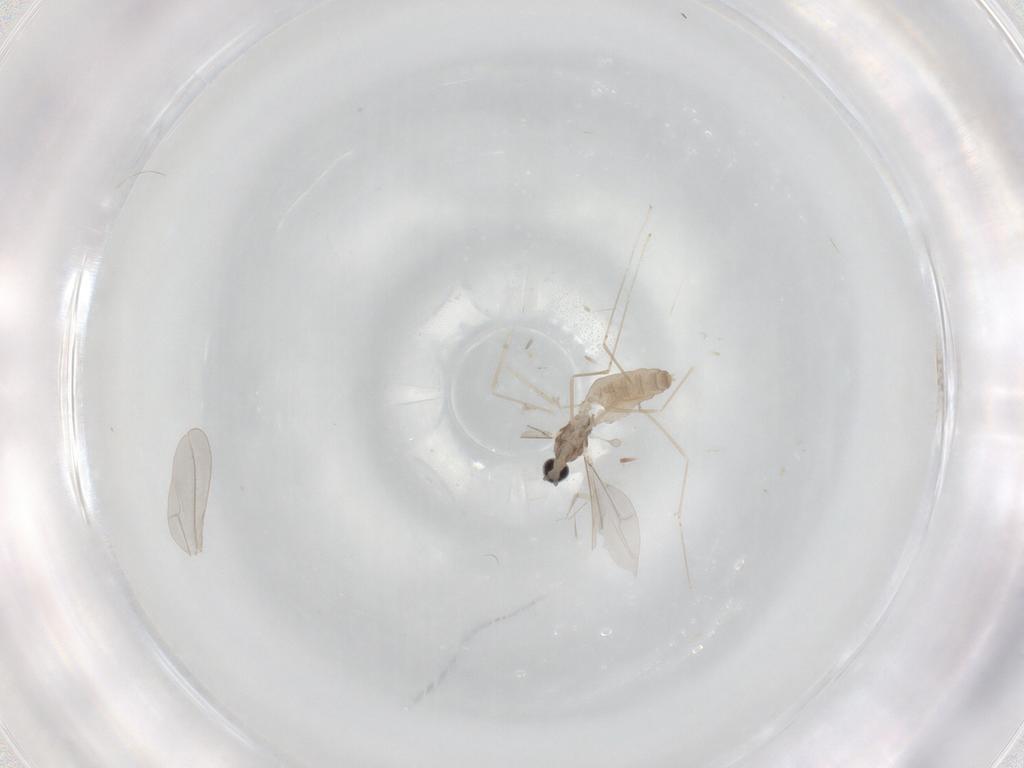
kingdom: Animalia
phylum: Arthropoda
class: Insecta
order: Diptera
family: Cecidomyiidae
